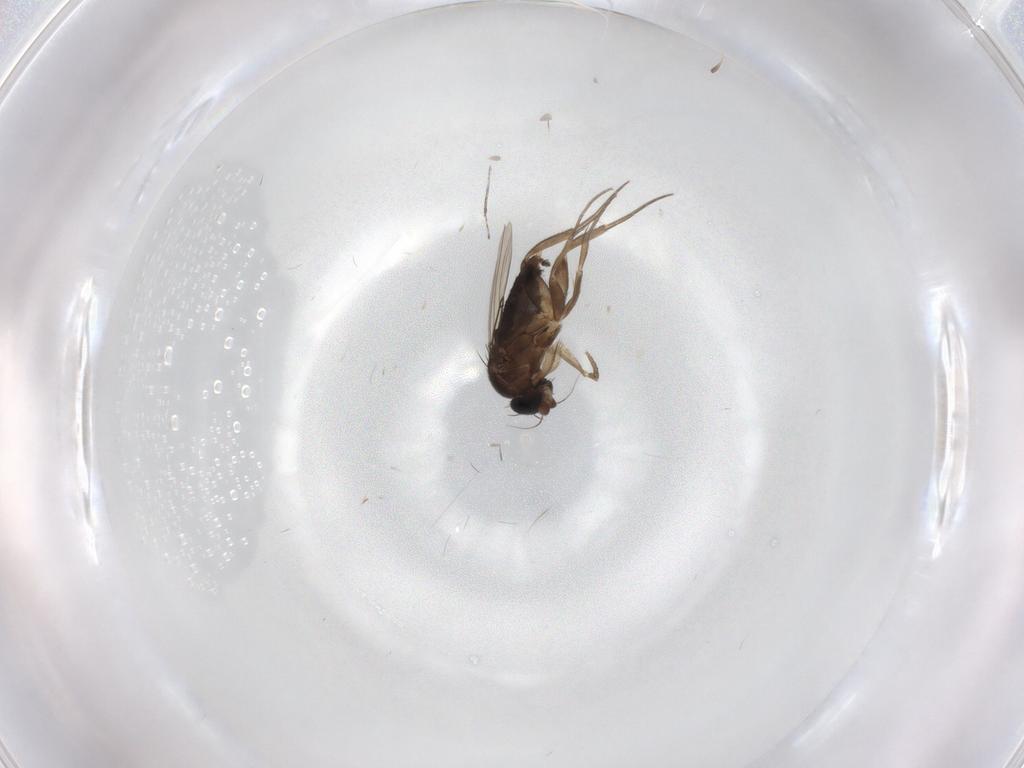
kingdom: Animalia
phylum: Arthropoda
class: Insecta
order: Diptera
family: Phoridae
